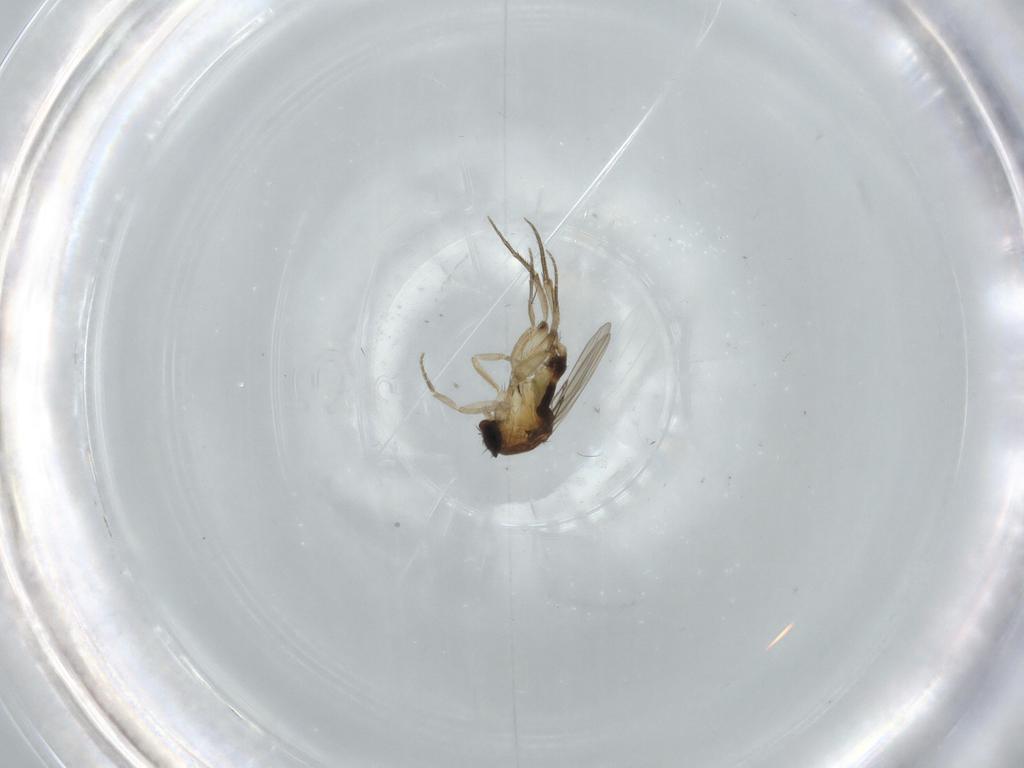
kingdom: Animalia
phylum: Arthropoda
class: Insecta
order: Diptera
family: Phoridae
